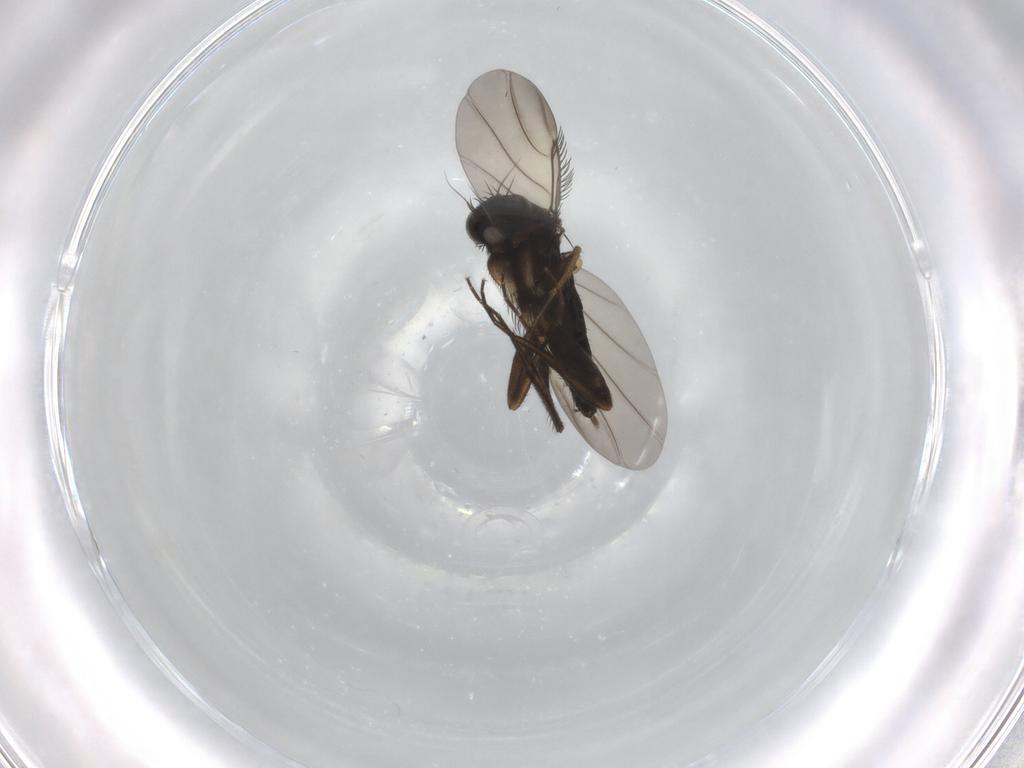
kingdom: Animalia
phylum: Arthropoda
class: Insecta
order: Diptera
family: Phoridae
